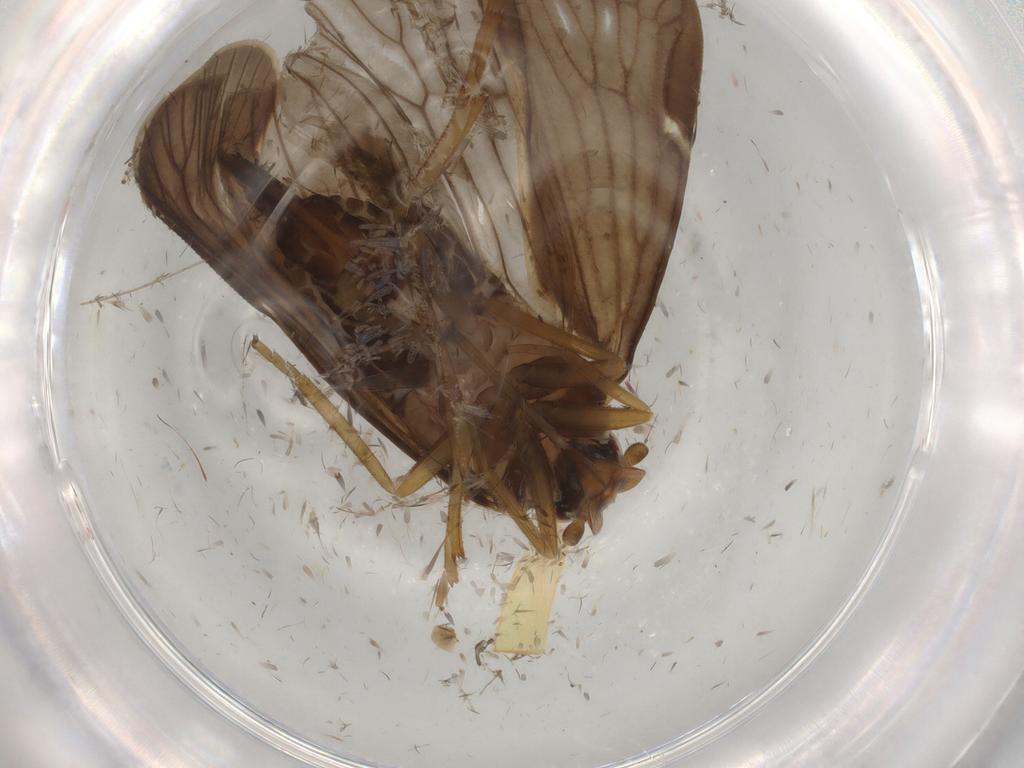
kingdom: Animalia
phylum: Arthropoda
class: Insecta
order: Hemiptera
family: Cixiidae
